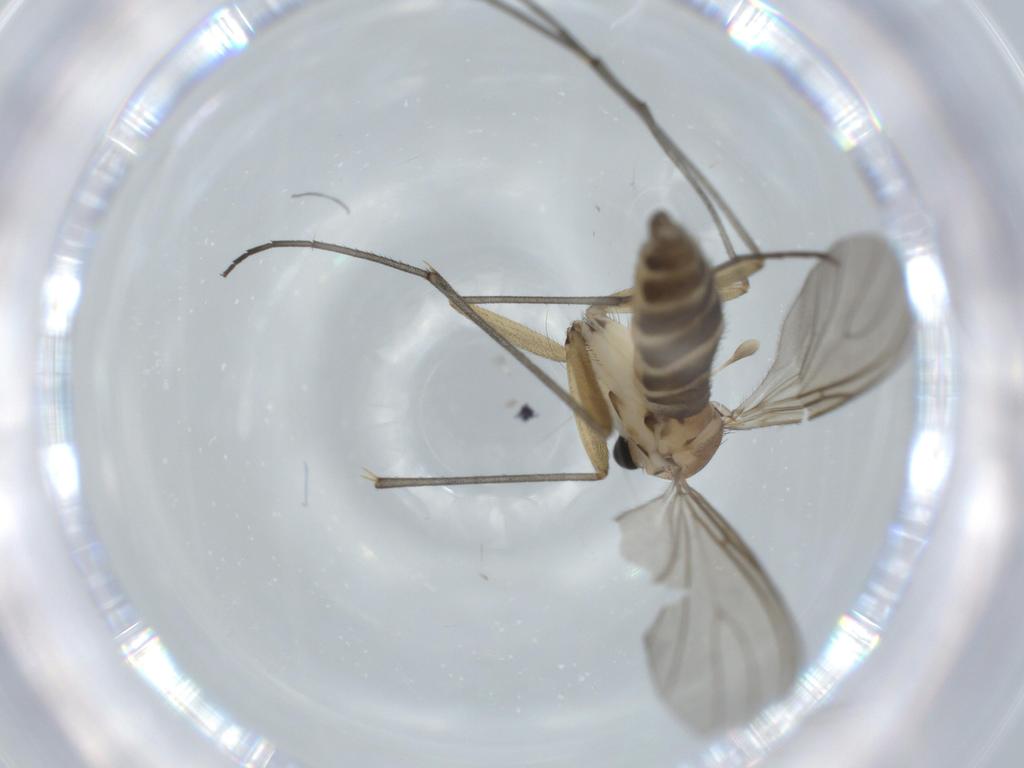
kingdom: Animalia
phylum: Arthropoda
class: Insecta
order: Diptera
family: Sciaridae
